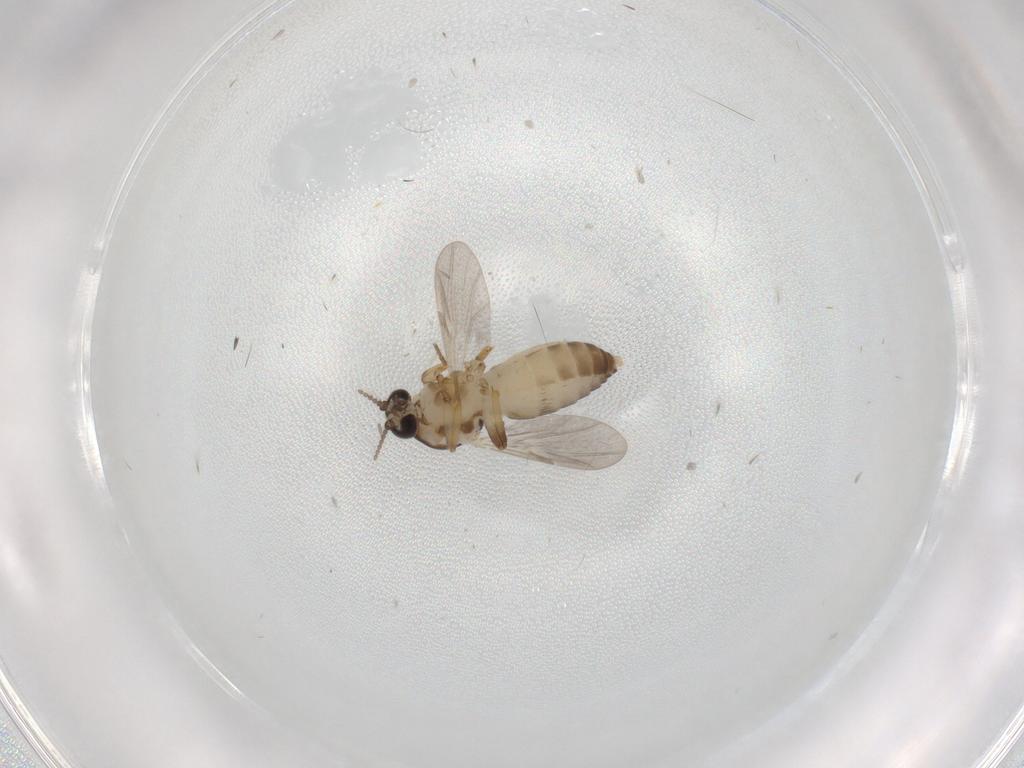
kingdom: Animalia
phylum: Arthropoda
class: Insecta
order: Diptera
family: Ceratopogonidae
